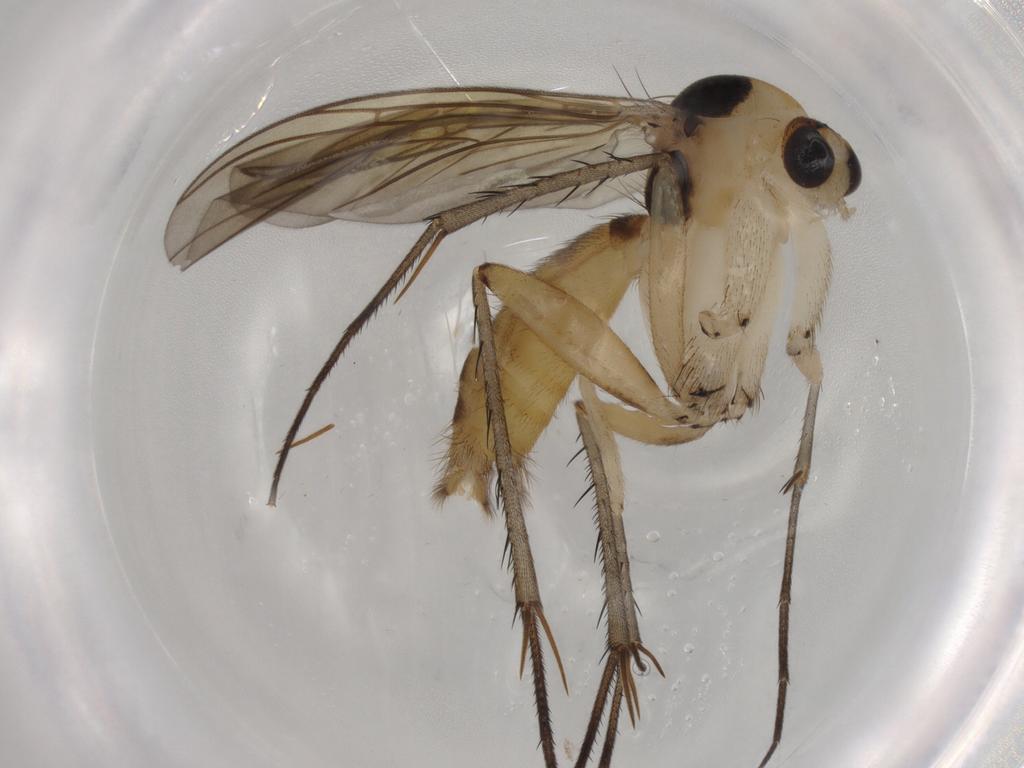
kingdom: Animalia
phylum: Arthropoda
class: Insecta
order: Diptera
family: Mycetophilidae
